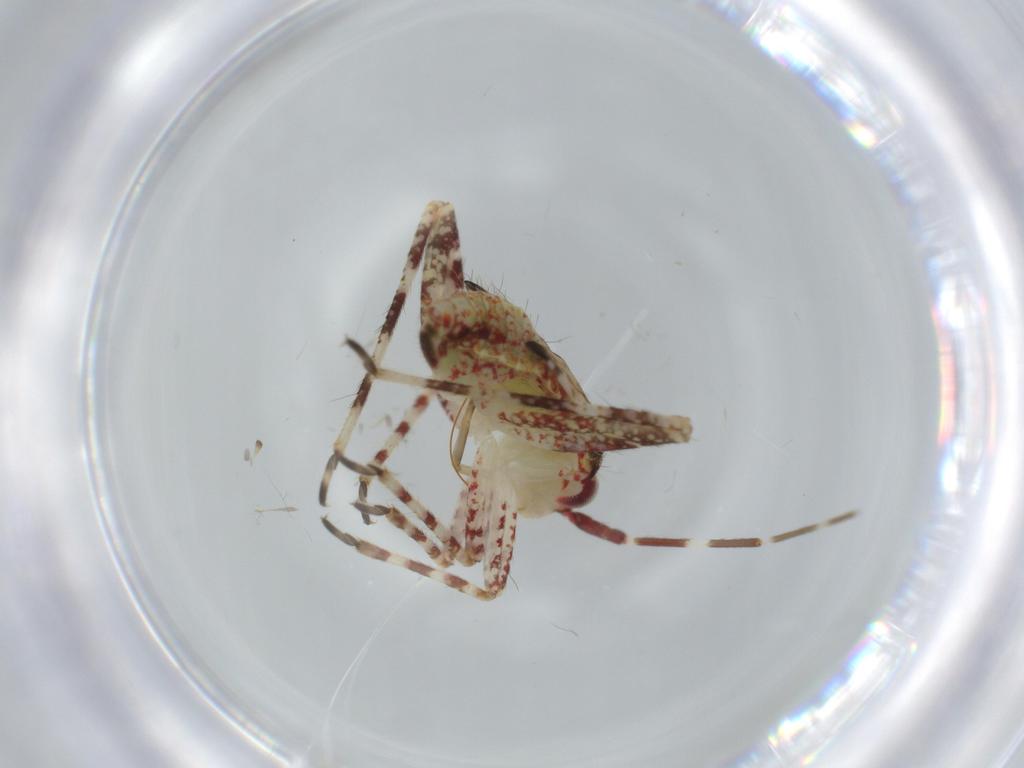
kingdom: Animalia
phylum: Arthropoda
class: Insecta
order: Hemiptera
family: Miridae
